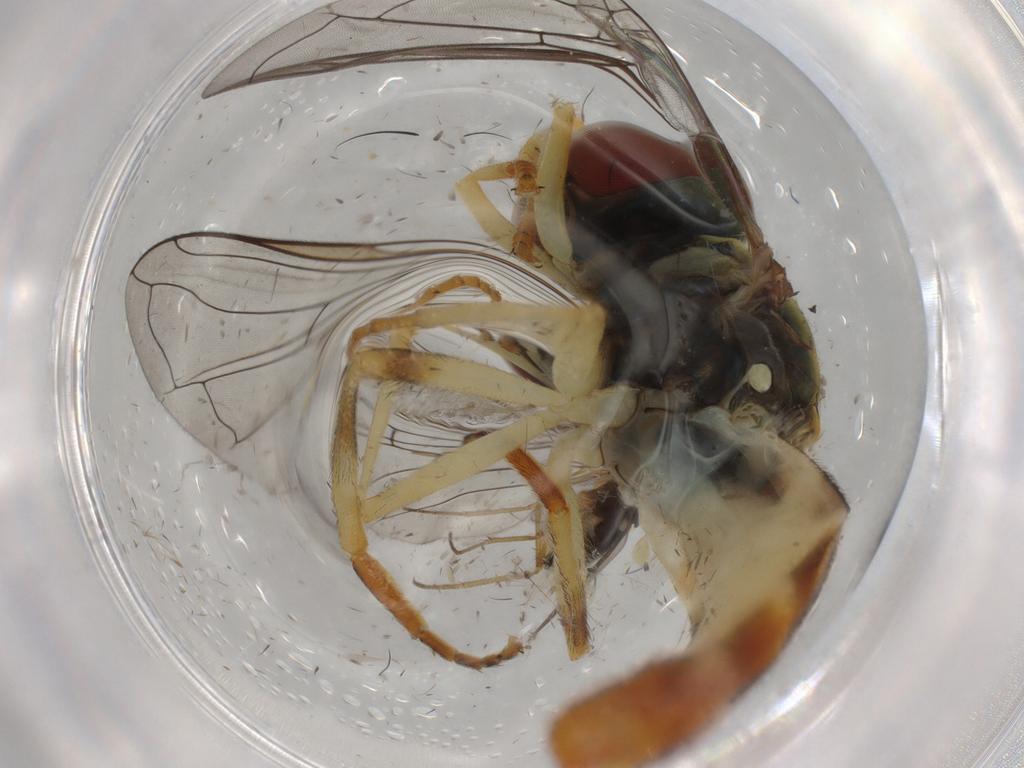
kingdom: Animalia
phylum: Arthropoda
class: Insecta
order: Diptera
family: Syrphidae
